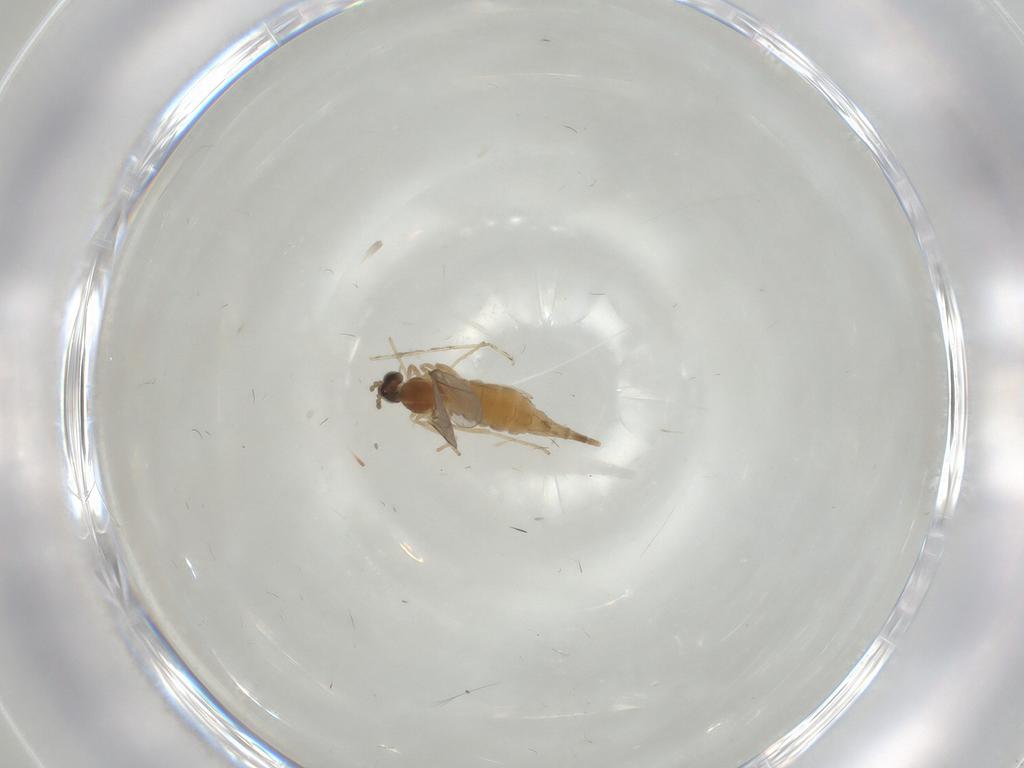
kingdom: Animalia
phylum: Arthropoda
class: Insecta
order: Diptera
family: Cecidomyiidae
